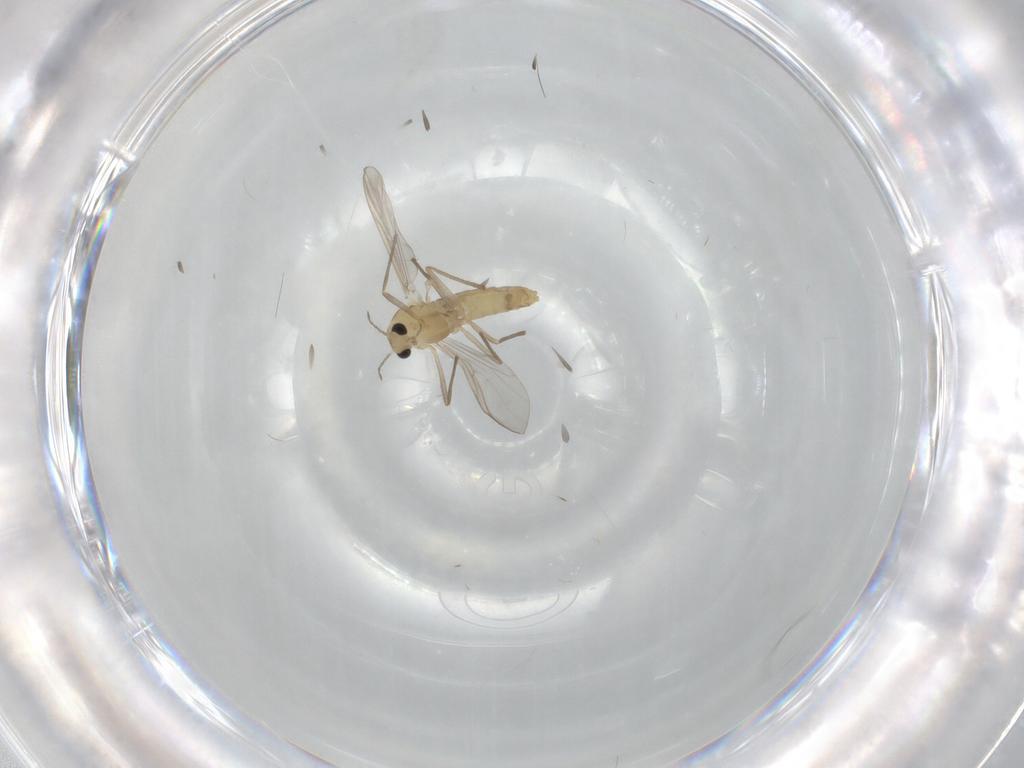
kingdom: Animalia
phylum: Arthropoda
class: Insecta
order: Diptera
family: Chironomidae
